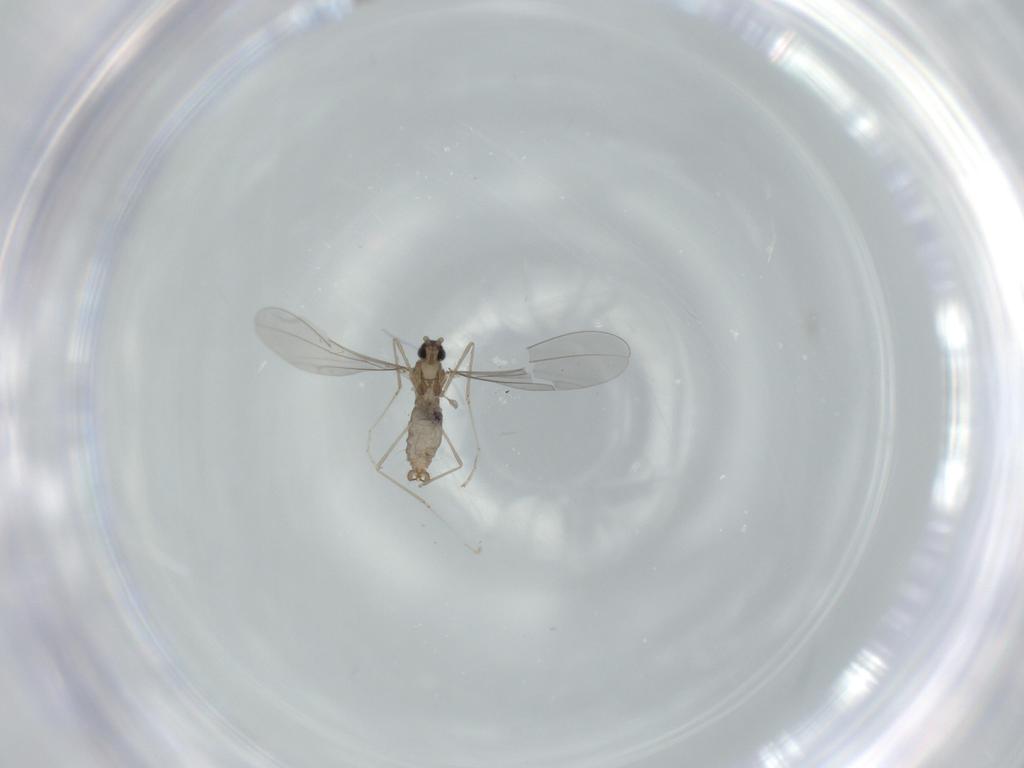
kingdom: Animalia
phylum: Arthropoda
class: Insecta
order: Diptera
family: Cecidomyiidae
